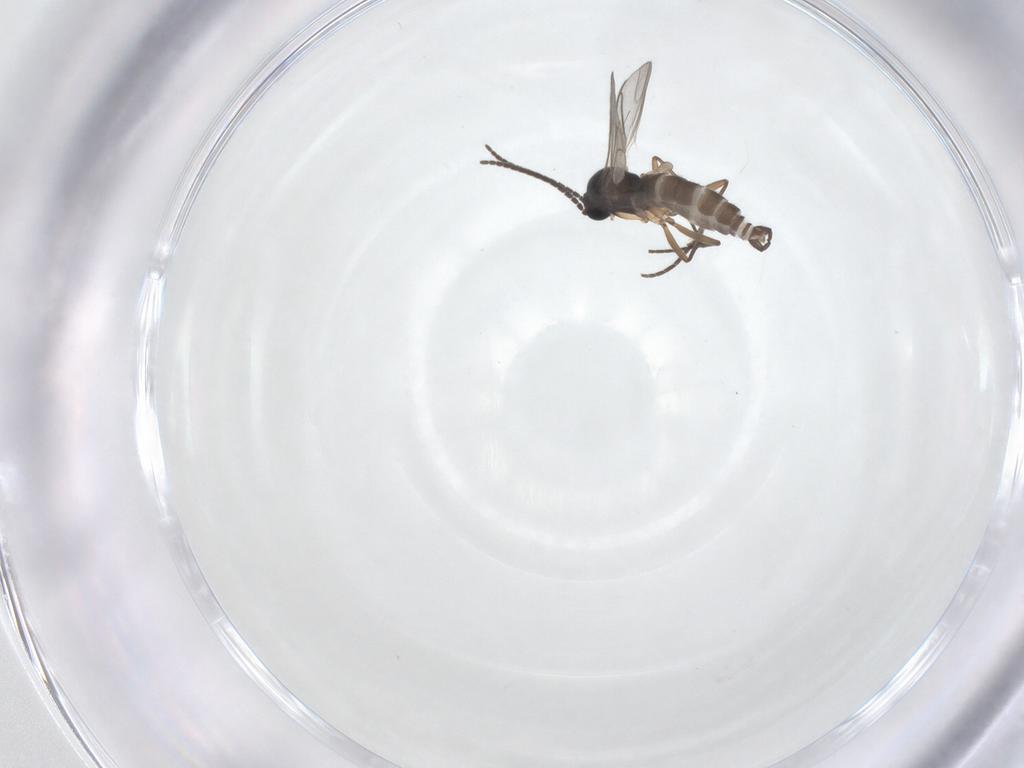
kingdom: Animalia
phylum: Arthropoda
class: Insecta
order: Diptera
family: Sciaridae
